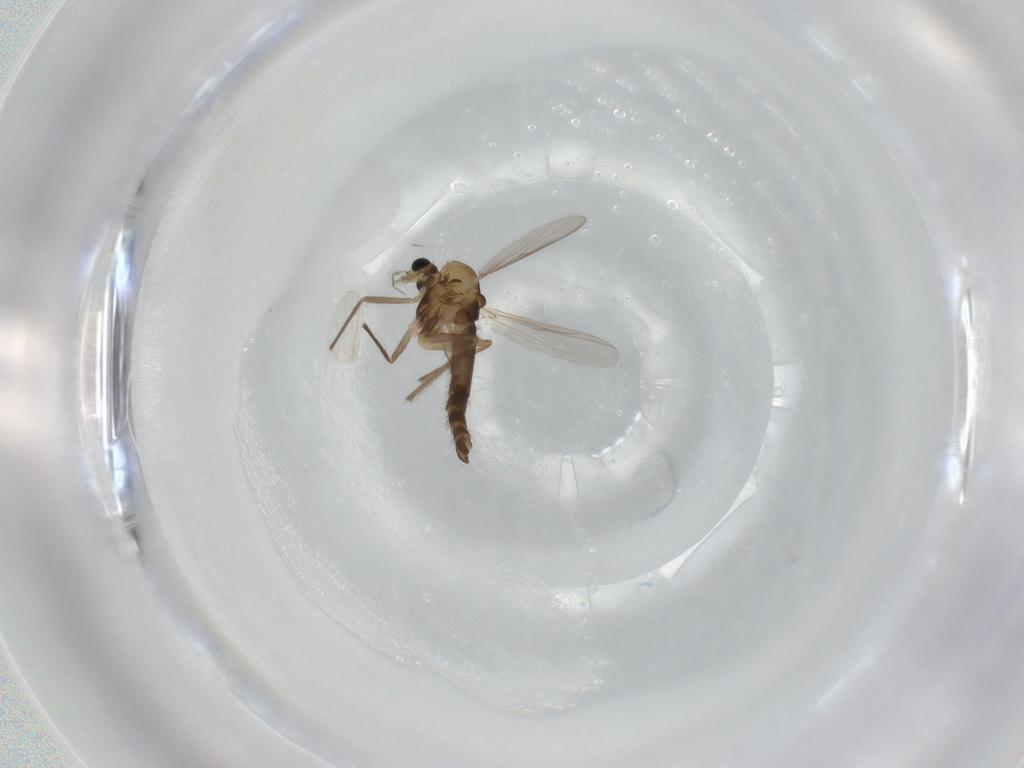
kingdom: Animalia
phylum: Arthropoda
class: Insecta
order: Diptera
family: Chironomidae
